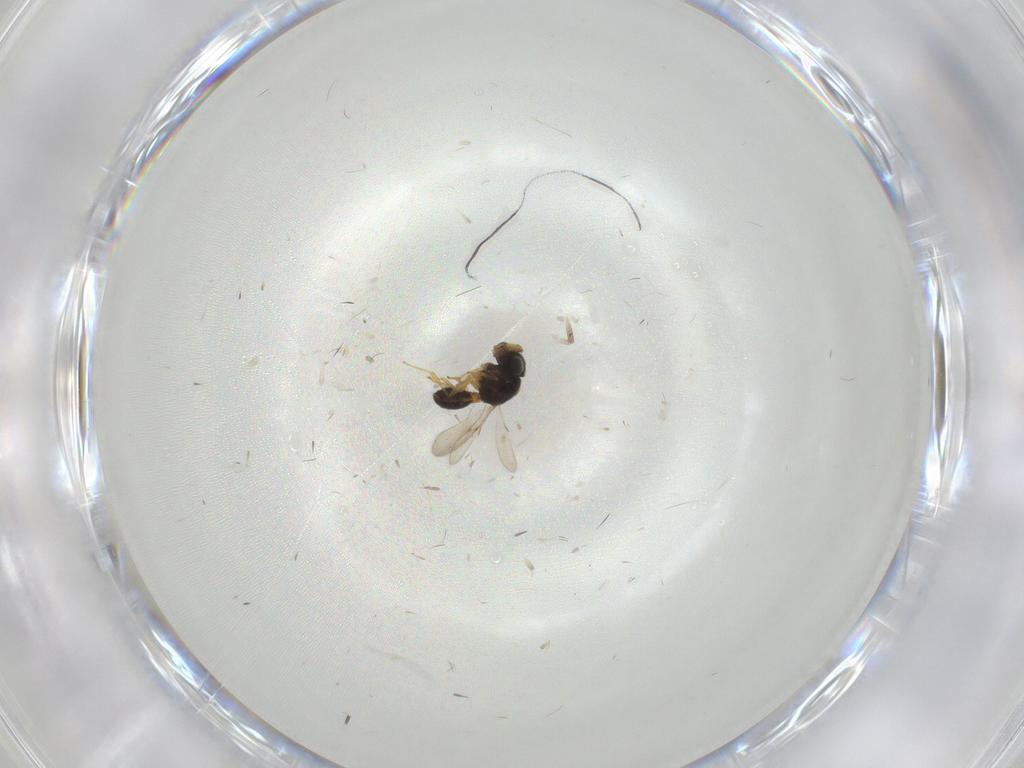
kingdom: Animalia
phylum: Arthropoda
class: Insecta
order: Hymenoptera
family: Scelionidae
